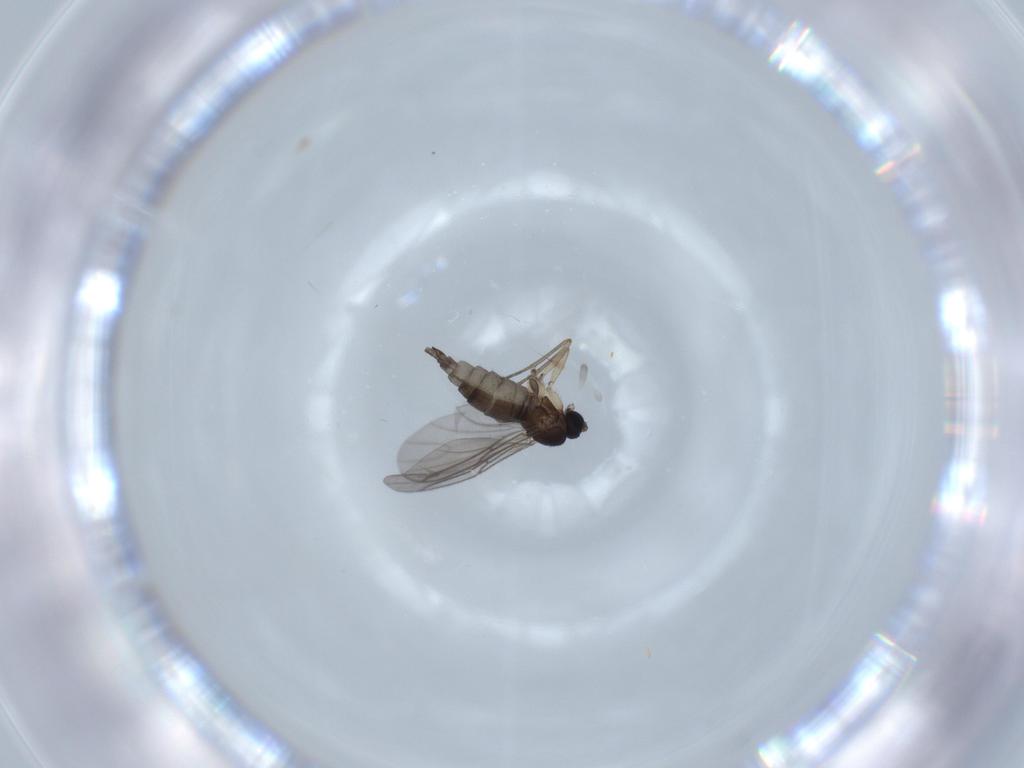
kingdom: Animalia
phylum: Arthropoda
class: Insecta
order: Diptera
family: Sciaridae
